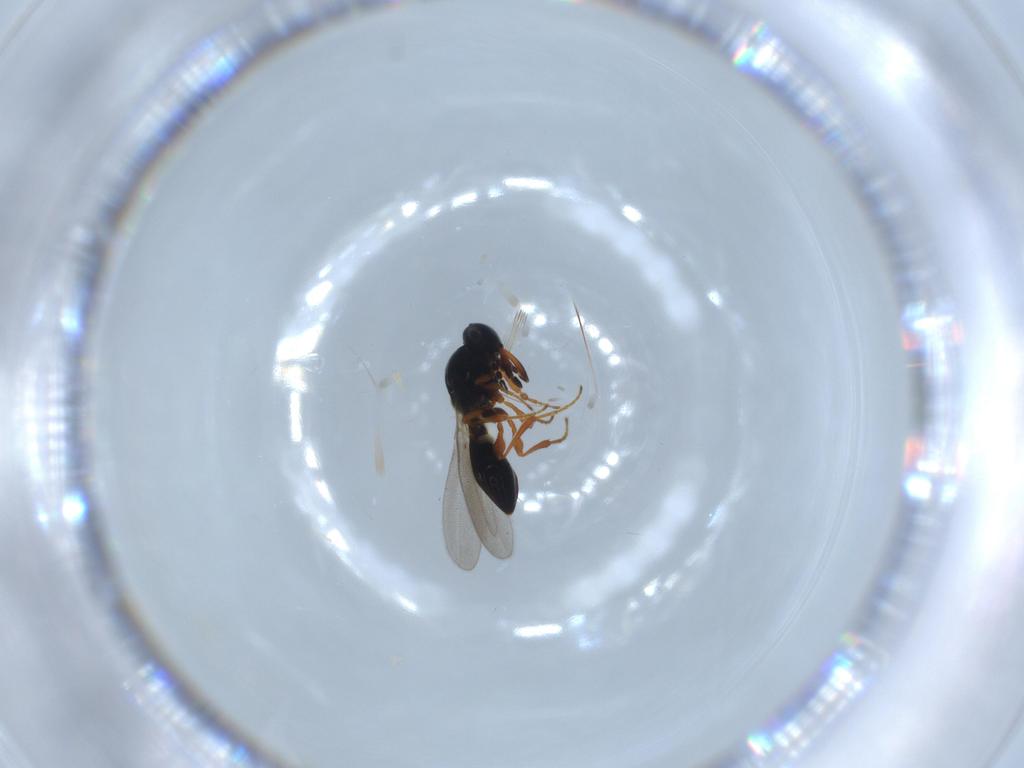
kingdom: Animalia
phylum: Arthropoda
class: Insecta
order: Hymenoptera
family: Platygastridae
